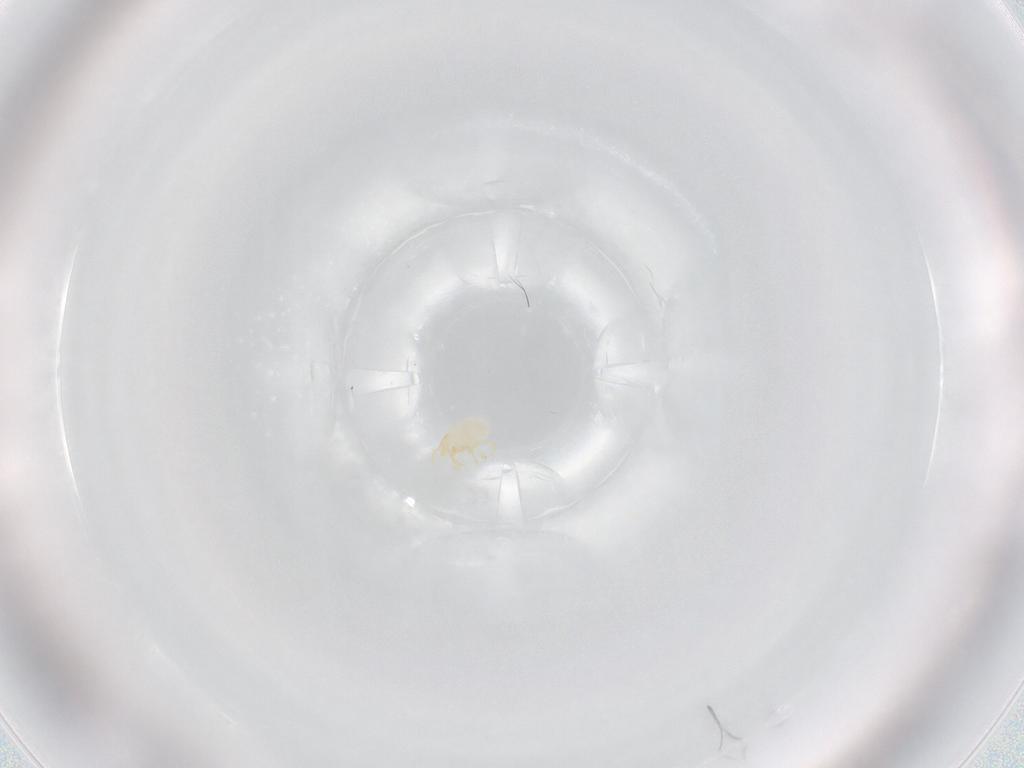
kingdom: Animalia
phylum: Arthropoda
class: Arachnida
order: Trombidiformes
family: Trombidiidae
